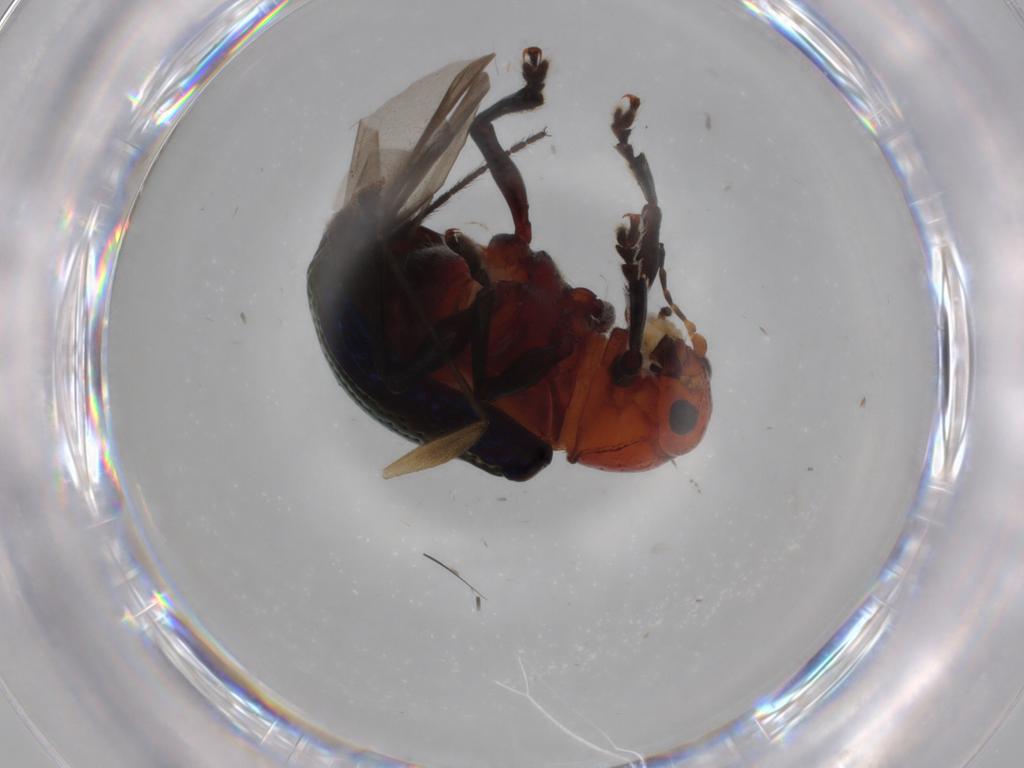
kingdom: Animalia
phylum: Arthropoda
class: Insecta
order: Coleoptera
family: Chrysomelidae
